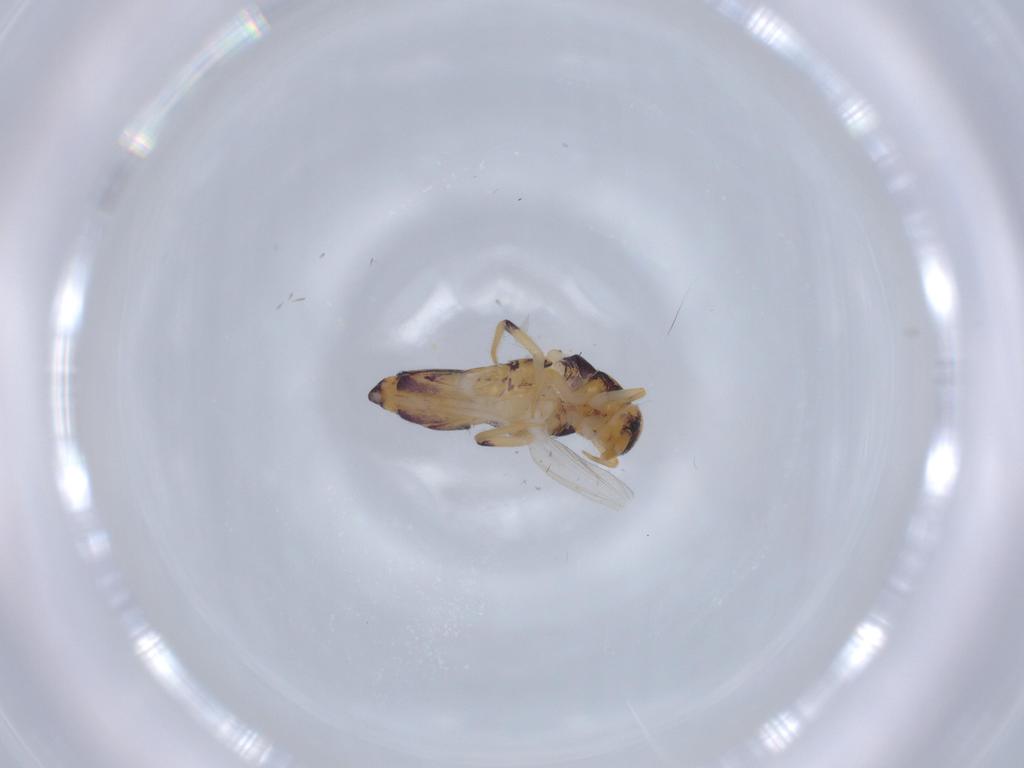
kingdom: Animalia
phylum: Arthropoda
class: Collembola
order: Entomobryomorpha
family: Entomobryidae
